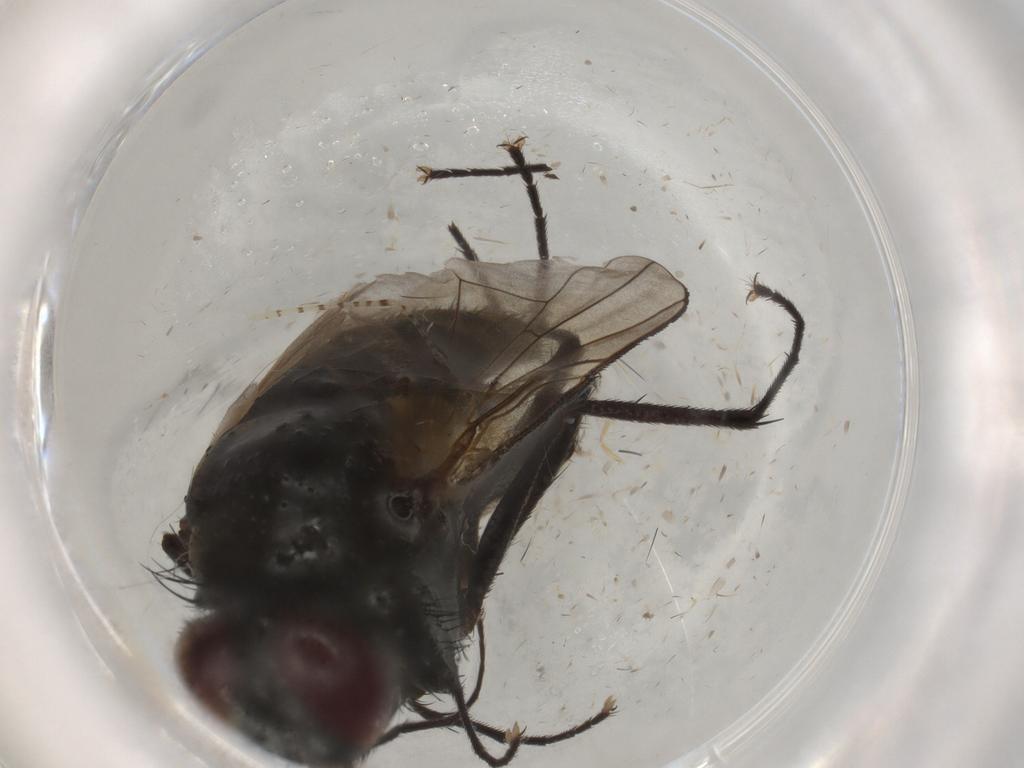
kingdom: Animalia
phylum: Arthropoda
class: Insecta
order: Diptera
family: Muscidae
